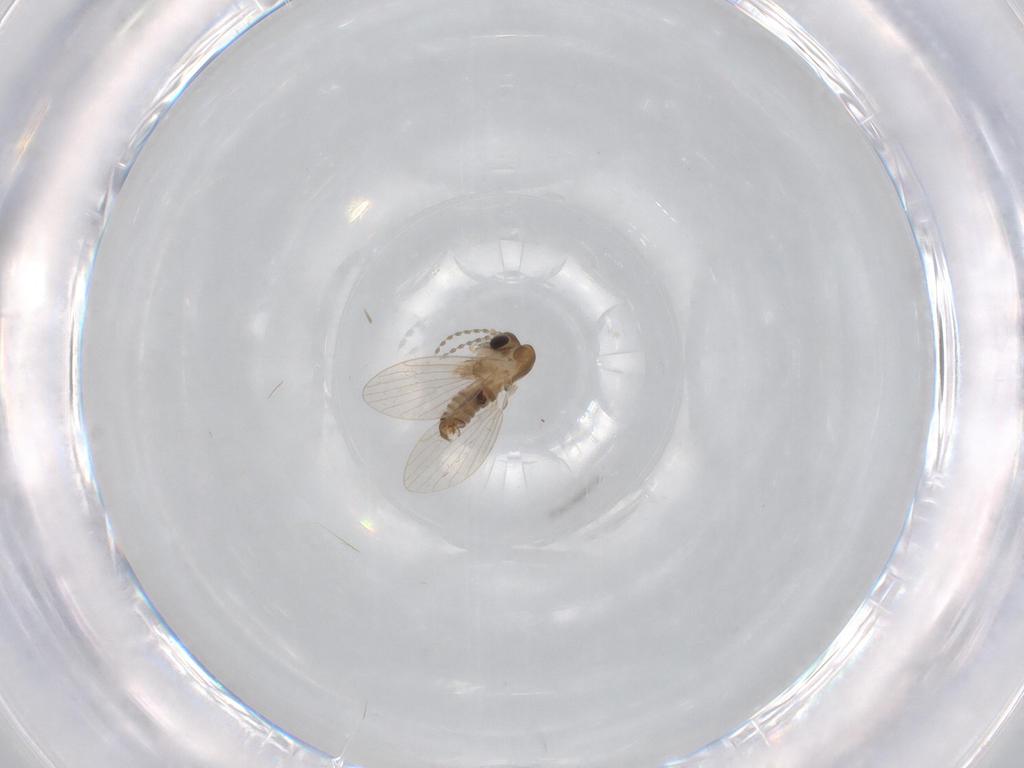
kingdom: Animalia
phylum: Arthropoda
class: Insecta
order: Diptera
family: Psychodidae
